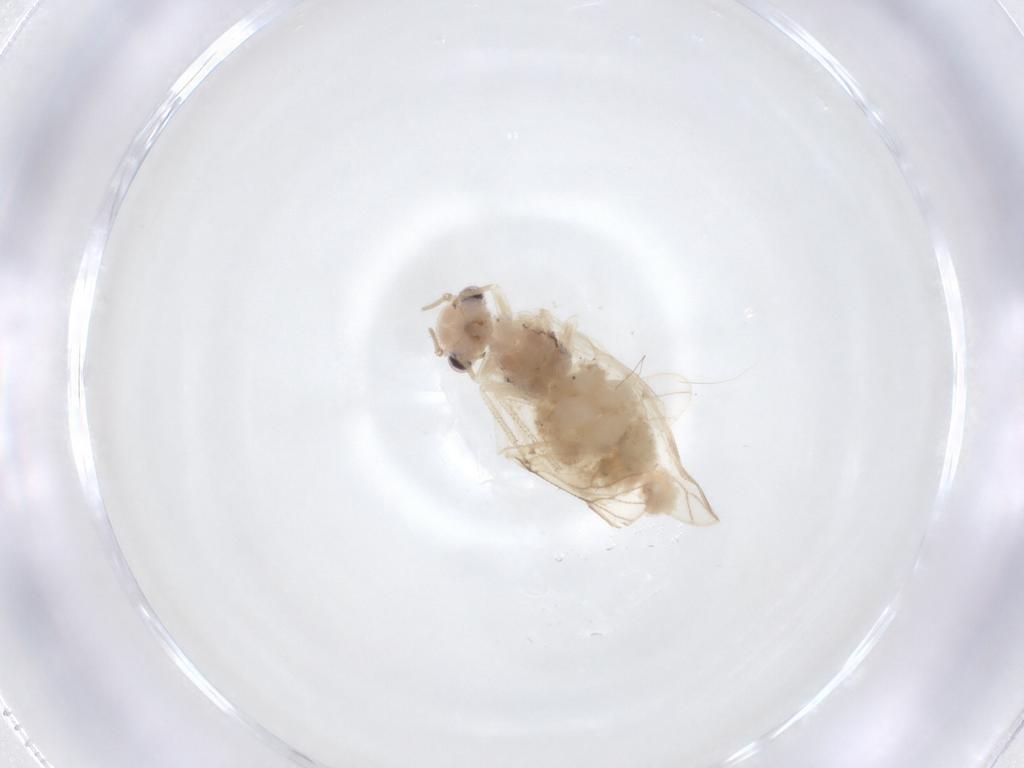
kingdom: Animalia
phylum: Arthropoda
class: Insecta
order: Psocodea
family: Caeciliusidae
